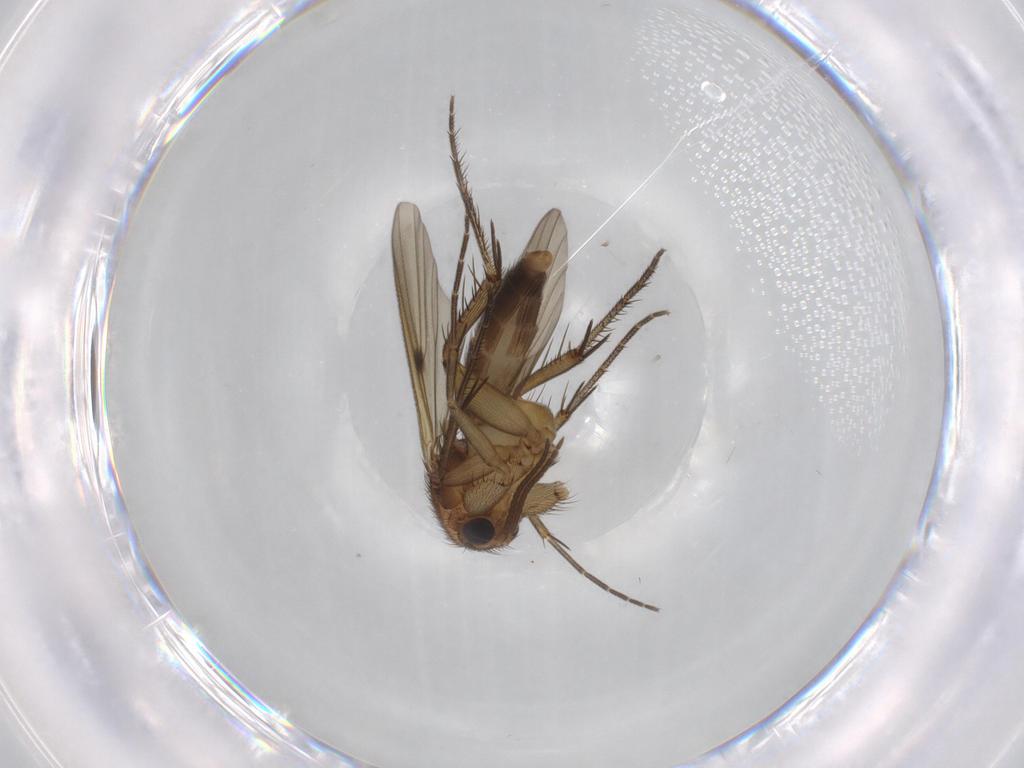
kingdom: Animalia
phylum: Arthropoda
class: Insecta
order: Diptera
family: Mycetophilidae
